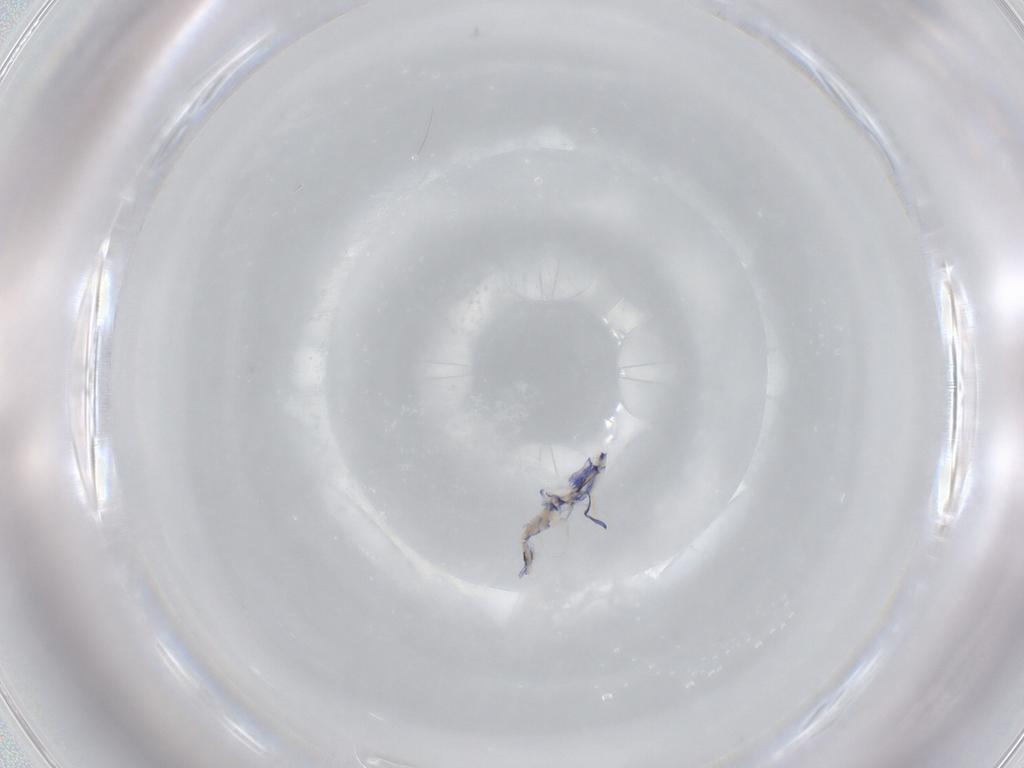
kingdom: Animalia
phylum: Arthropoda
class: Collembola
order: Entomobryomorpha
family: Entomobryidae
